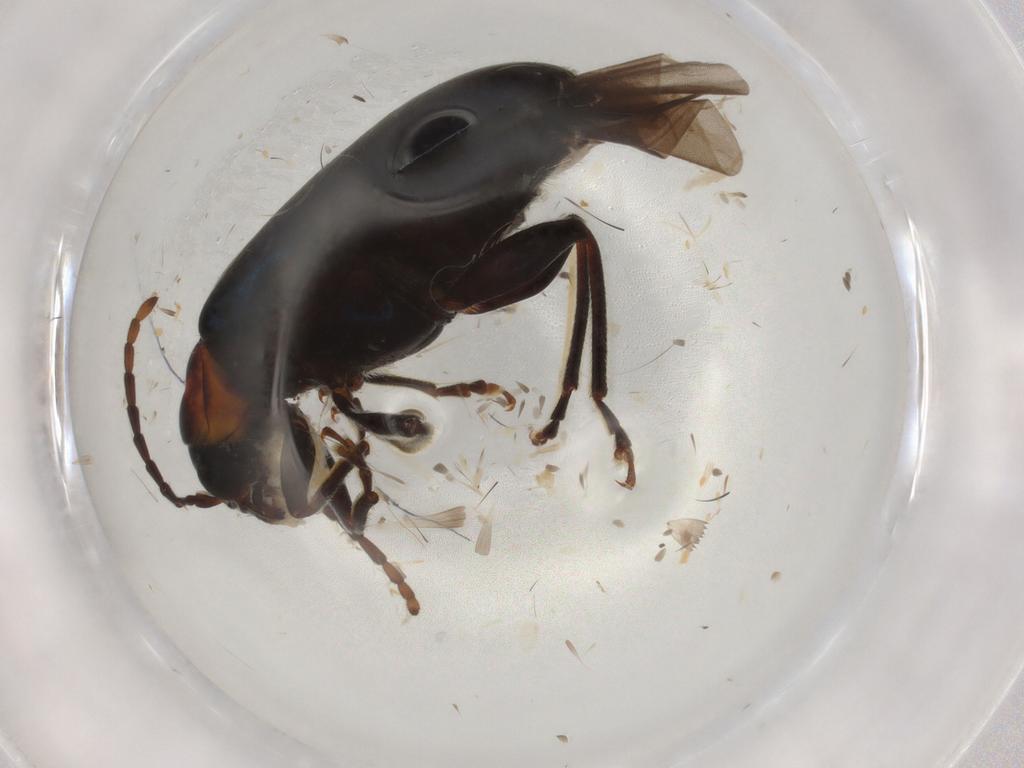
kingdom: Animalia
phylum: Arthropoda
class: Insecta
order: Coleoptera
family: Chrysomelidae
